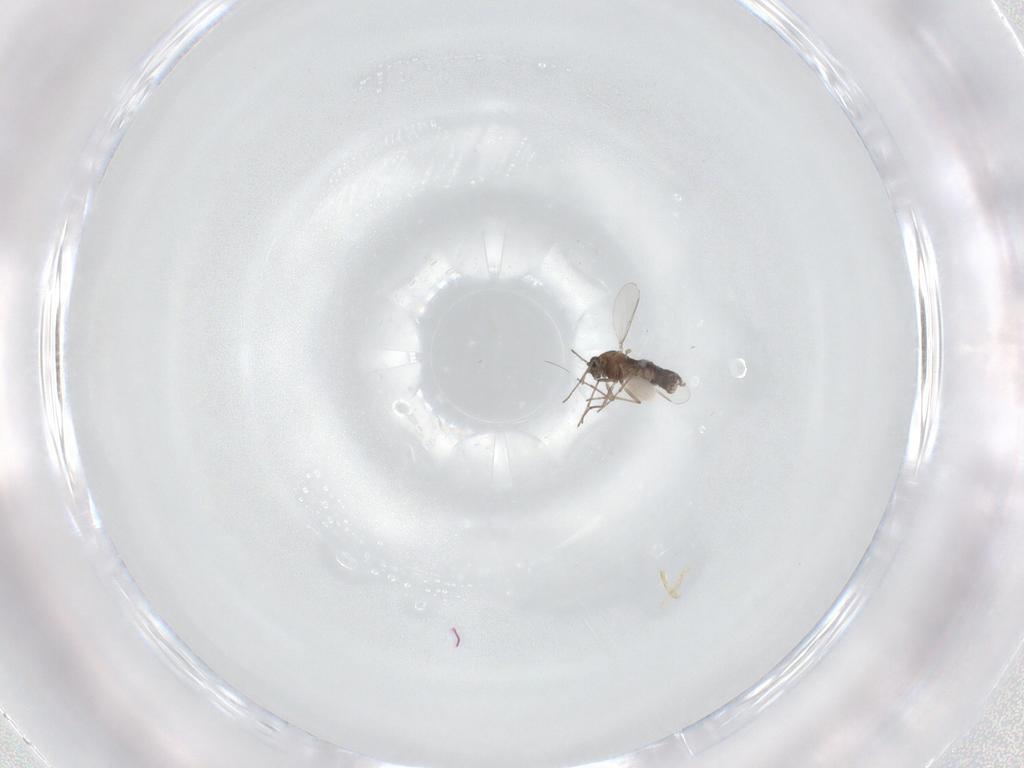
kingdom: Animalia
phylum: Arthropoda
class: Insecta
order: Diptera
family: Chironomidae
